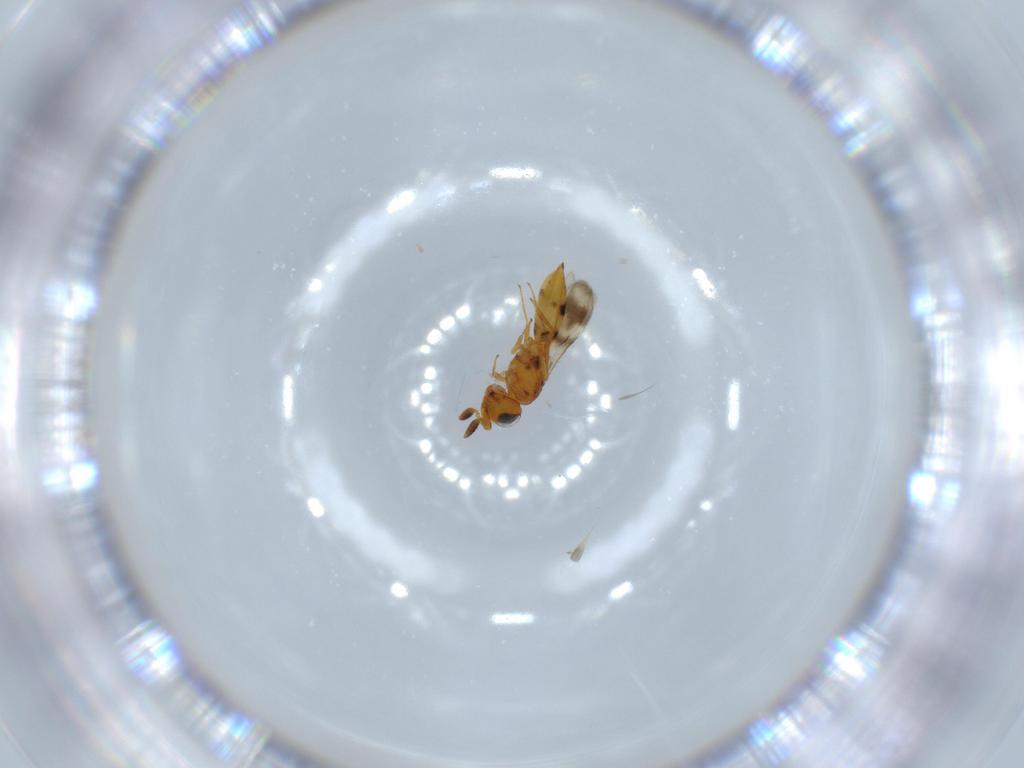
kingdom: Animalia
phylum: Arthropoda
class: Insecta
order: Hymenoptera
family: Scelionidae
